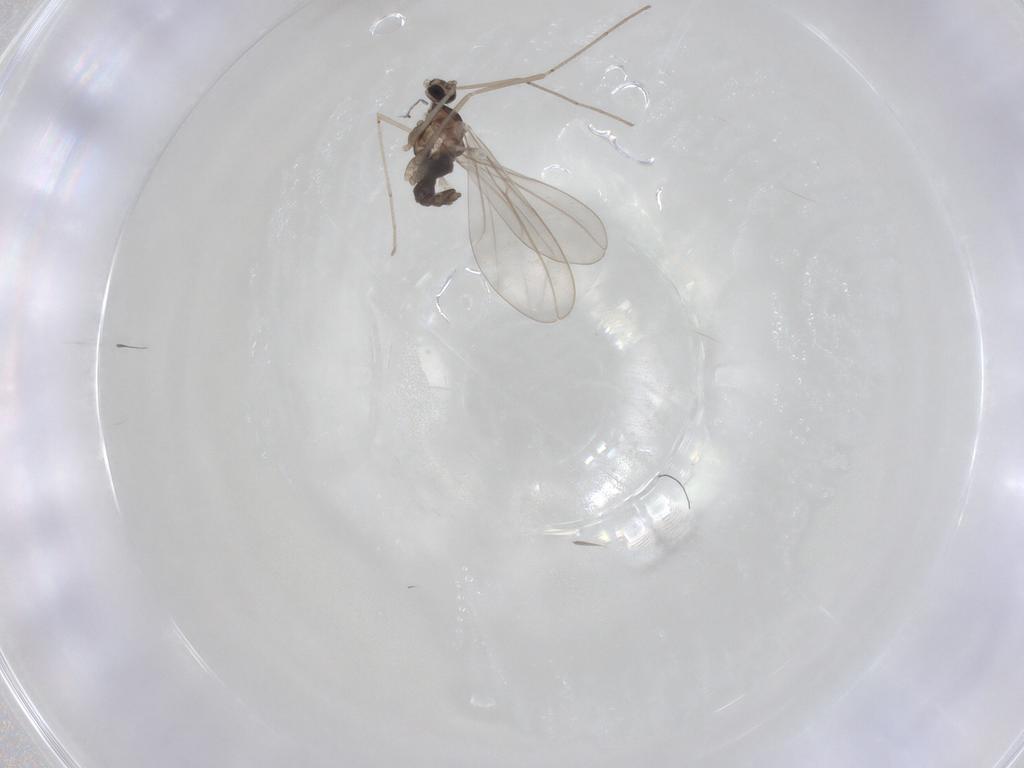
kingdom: Animalia
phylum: Arthropoda
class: Insecta
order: Diptera
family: Cecidomyiidae
